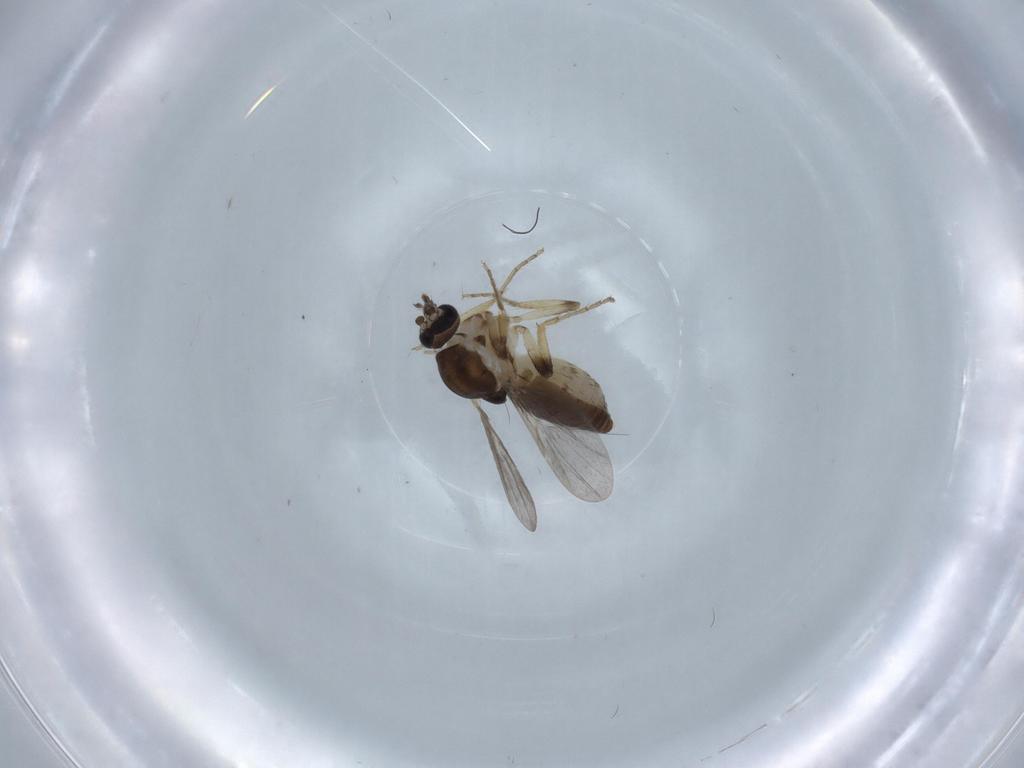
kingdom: Animalia
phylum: Arthropoda
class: Insecta
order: Diptera
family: Ceratopogonidae
